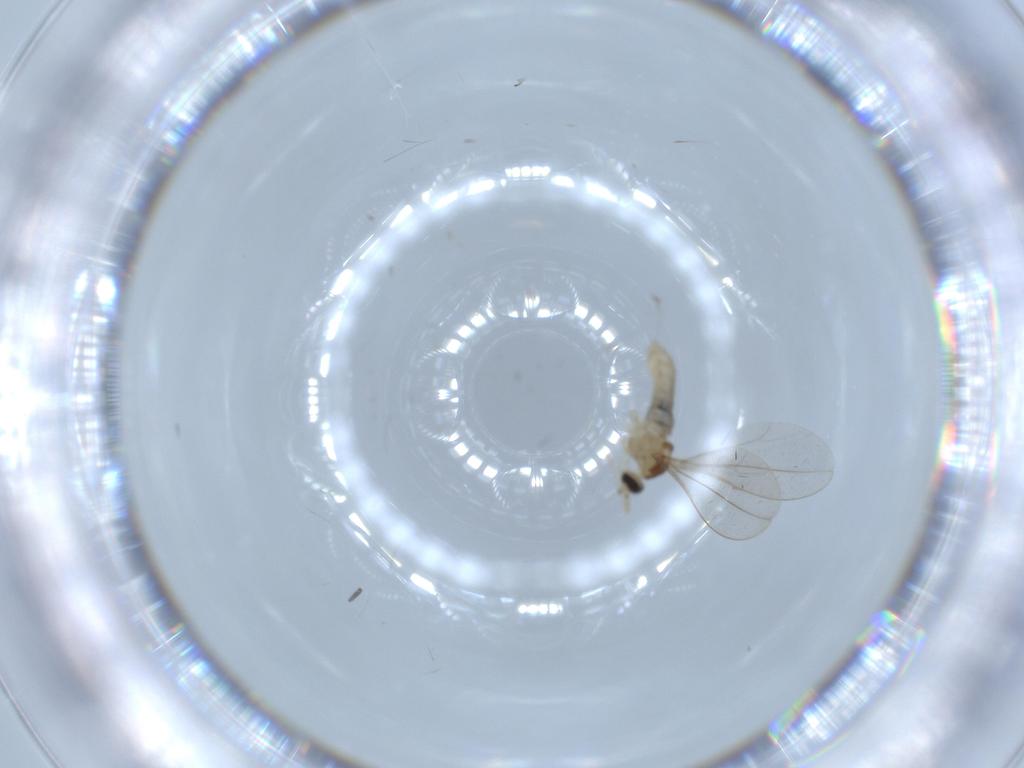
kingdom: Animalia
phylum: Arthropoda
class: Insecta
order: Diptera
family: Cecidomyiidae
